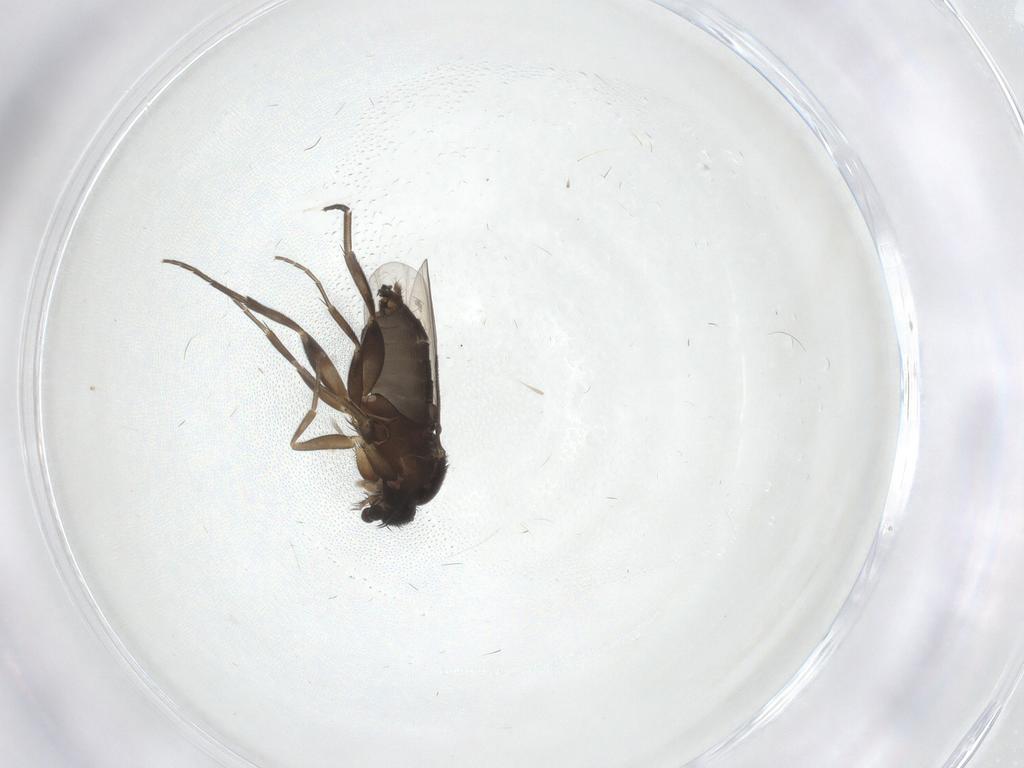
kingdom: Animalia
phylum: Arthropoda
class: Insecta
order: Diptera
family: Phoridae
